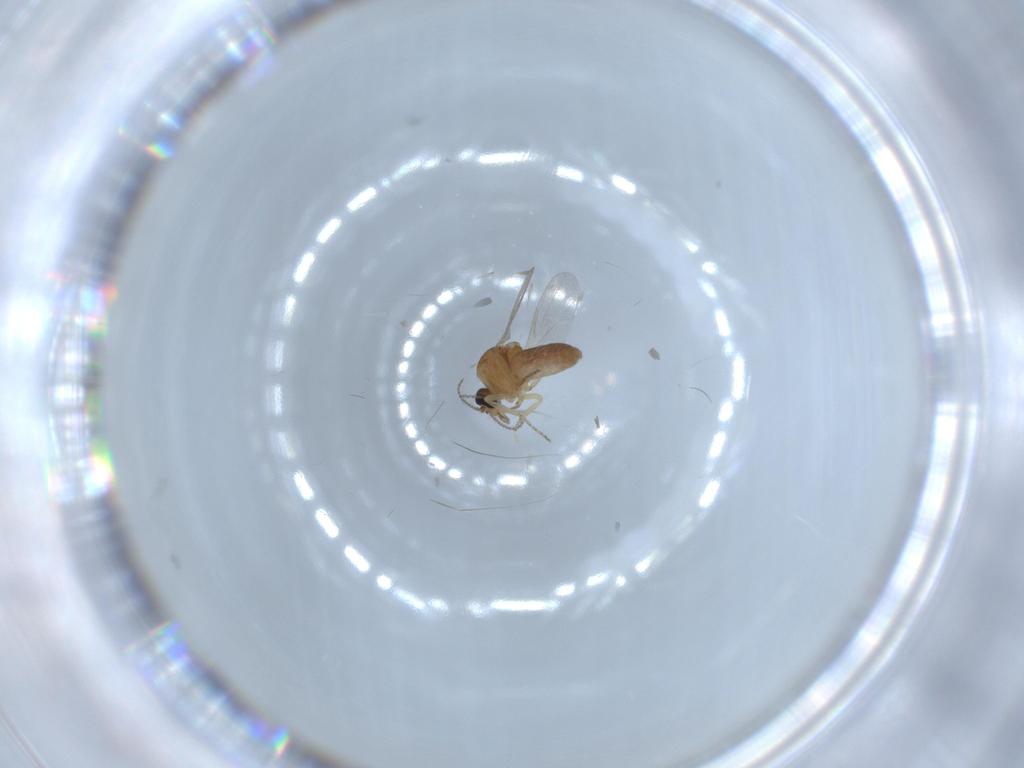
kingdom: Animalia
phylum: Arthropoda
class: Insecta
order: Diptera
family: Ceratopogonidae
